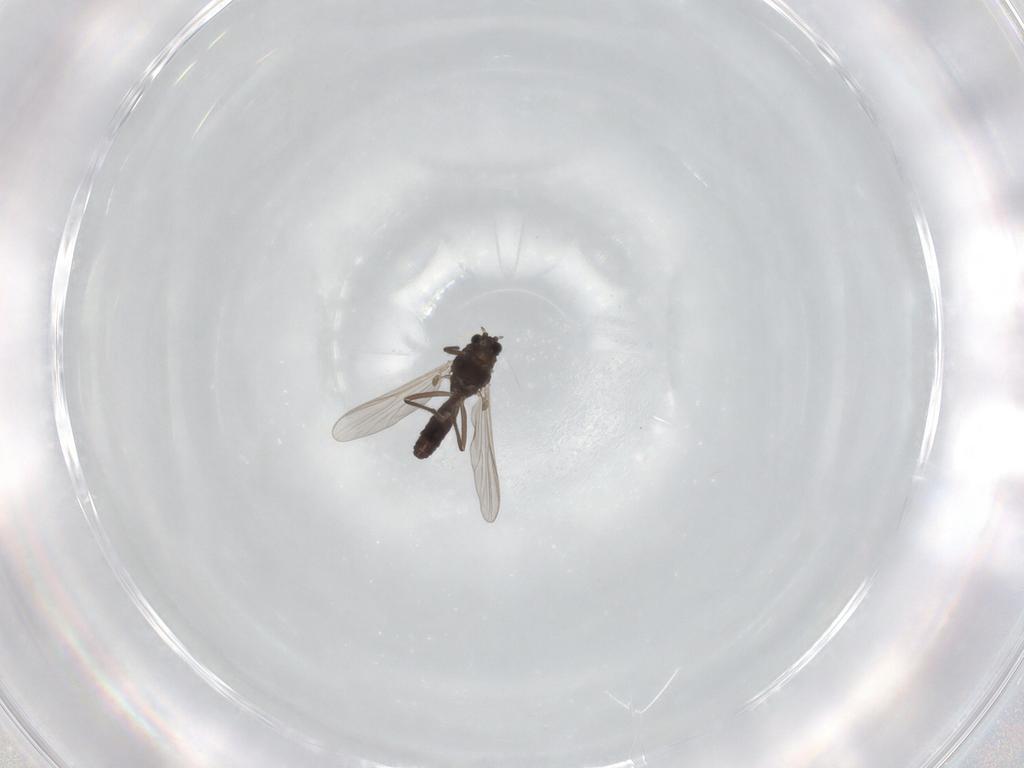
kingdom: Animalia
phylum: Arthropoda
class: Insecta
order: Diptera
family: Chironomidae
